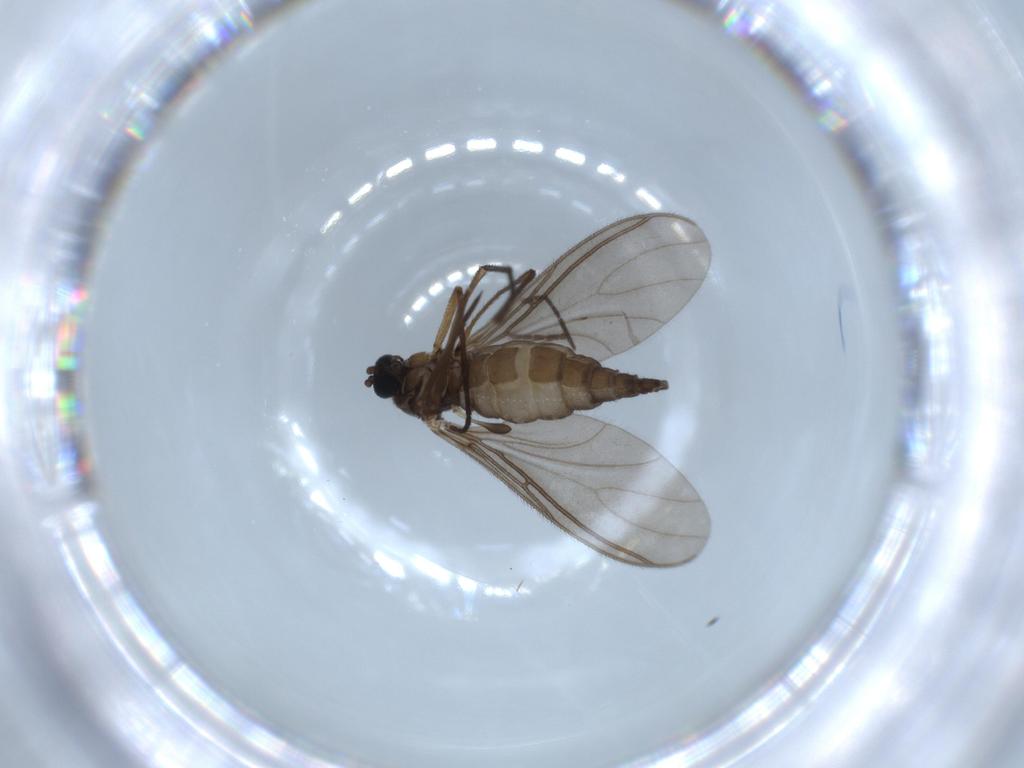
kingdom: Animalia
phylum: Arthropoda
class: Insecta
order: Diptera
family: Sciaridae
